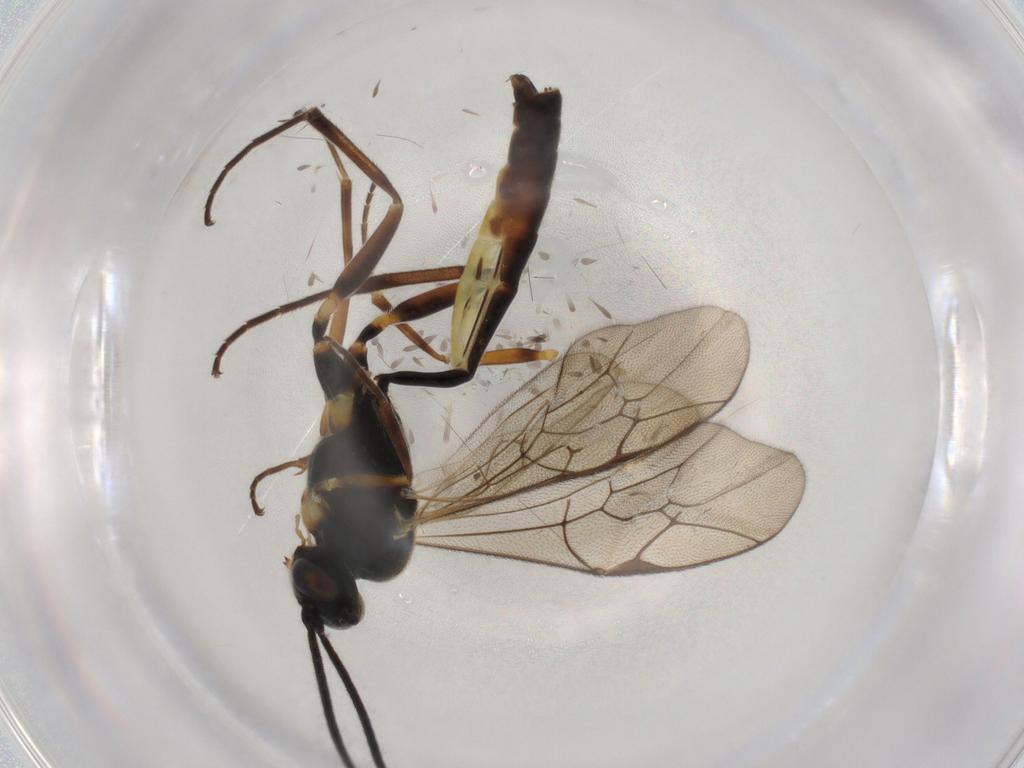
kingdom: Animalia
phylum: Arthropoda
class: Insecta
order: Hymenoptera
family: Ichneumonidae
